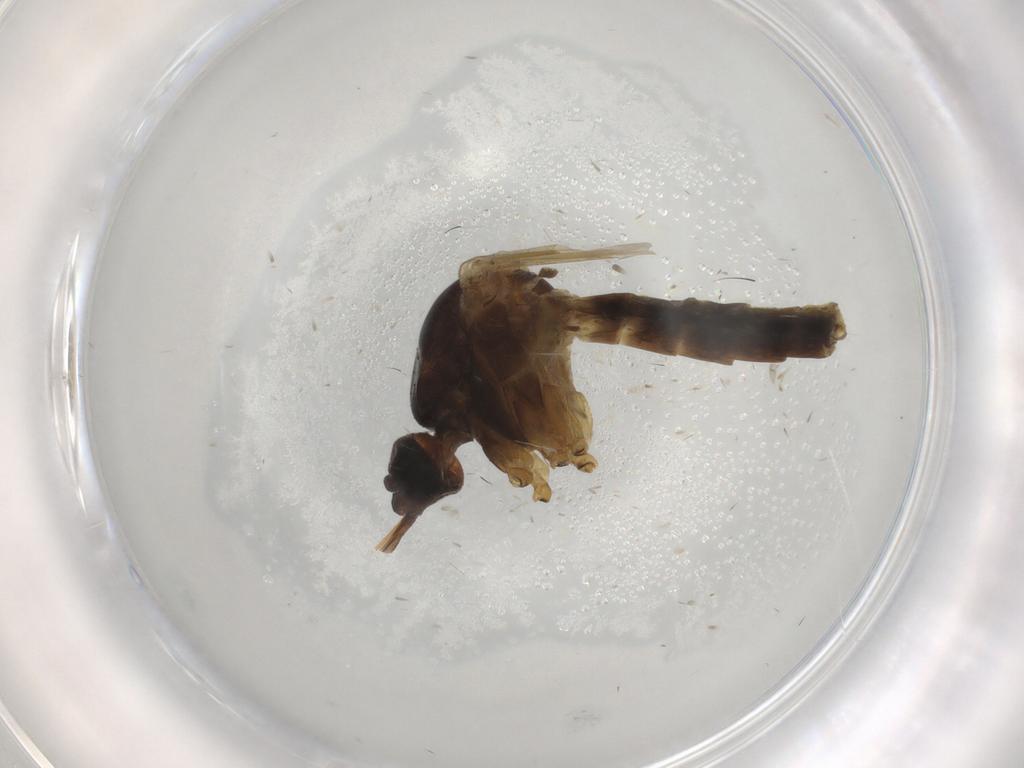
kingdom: Animalia
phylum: Arthropoda
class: Insecta
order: Diptera
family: Ceratopogonidae
